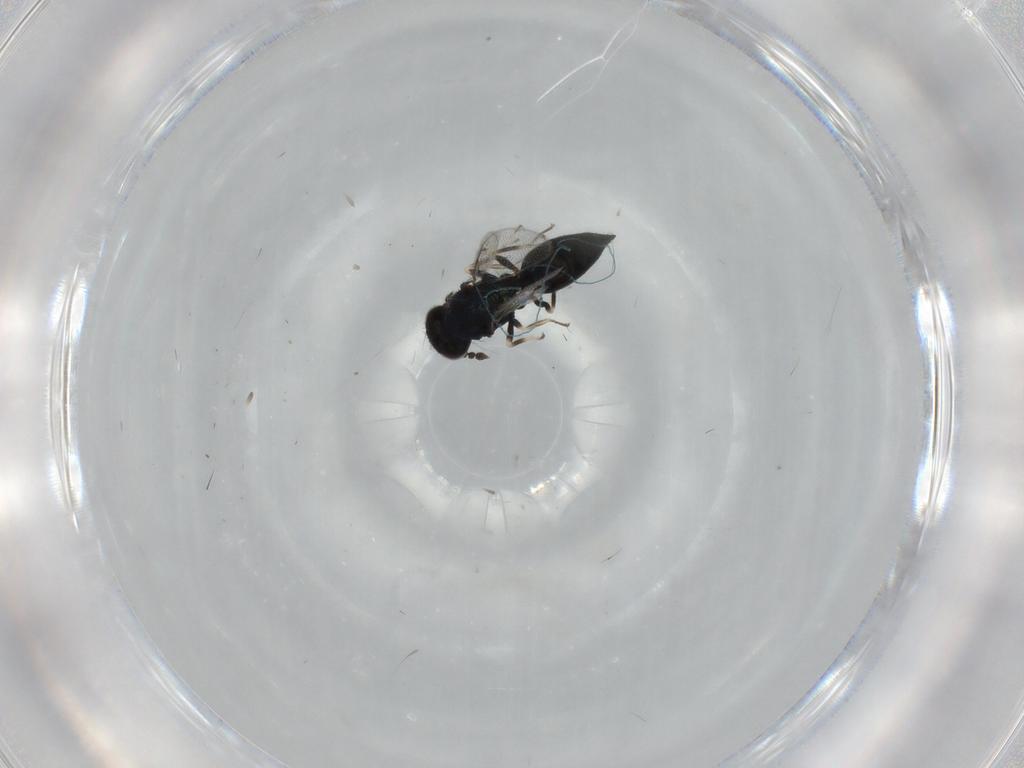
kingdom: Animalia
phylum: Arthropoda
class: Insecta
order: Hymenoptera
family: Eulophidae
